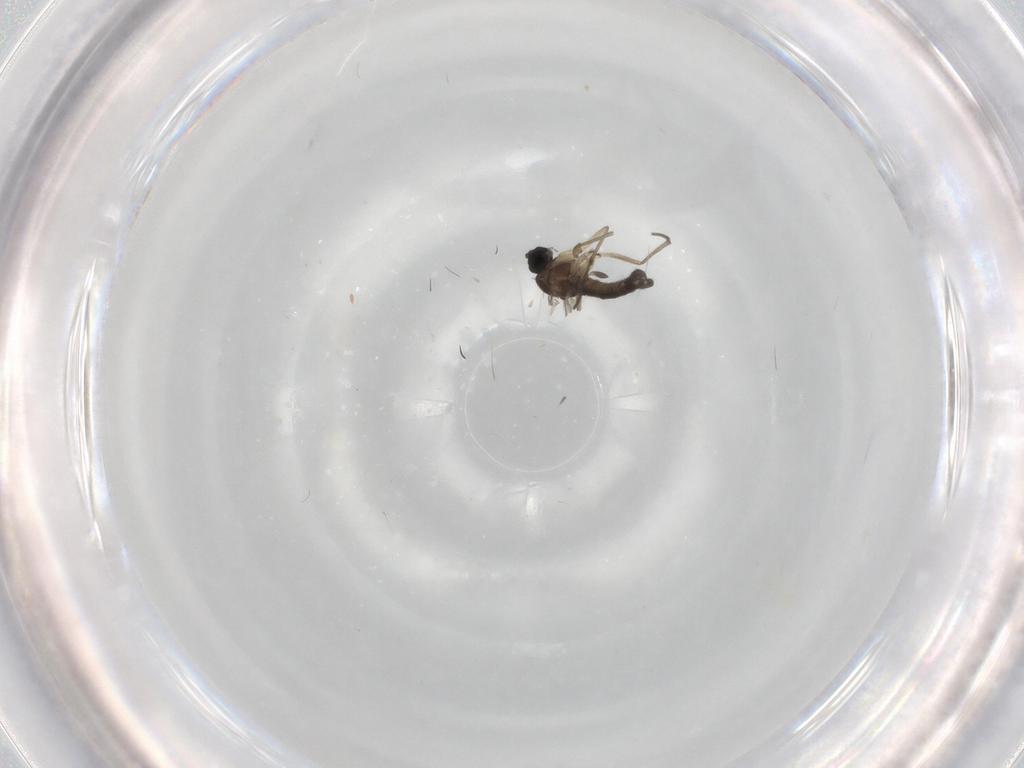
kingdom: Animalia
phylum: Arthropoda
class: Insecta
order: Diptera
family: Sciaridae
